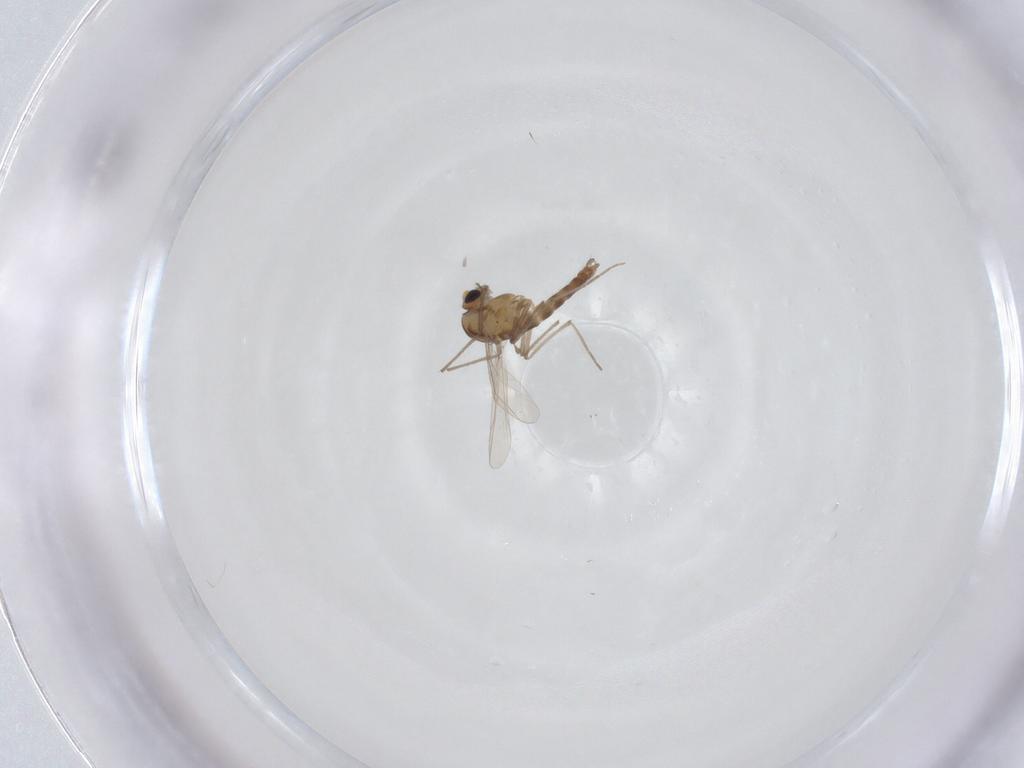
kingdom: Animalia
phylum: Arthropoda
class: Insecta
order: Diptera
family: Chironomidae
